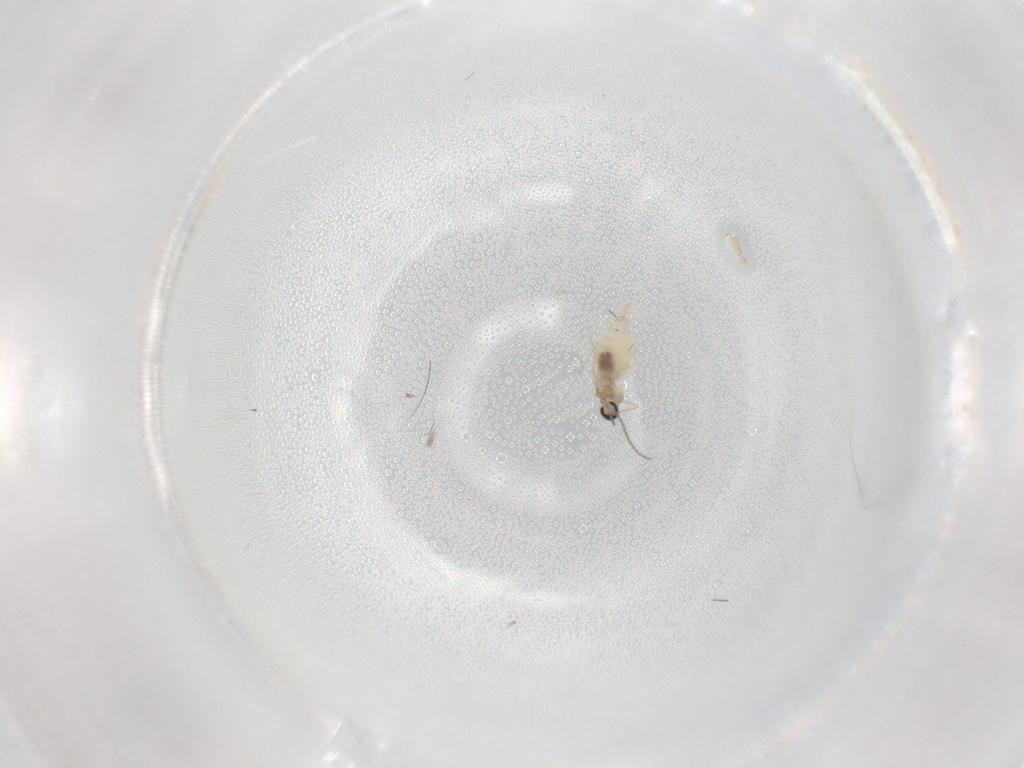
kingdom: Animalia
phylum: Arthropoda
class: Insecta
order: Diptera
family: Cecidomyiidae
